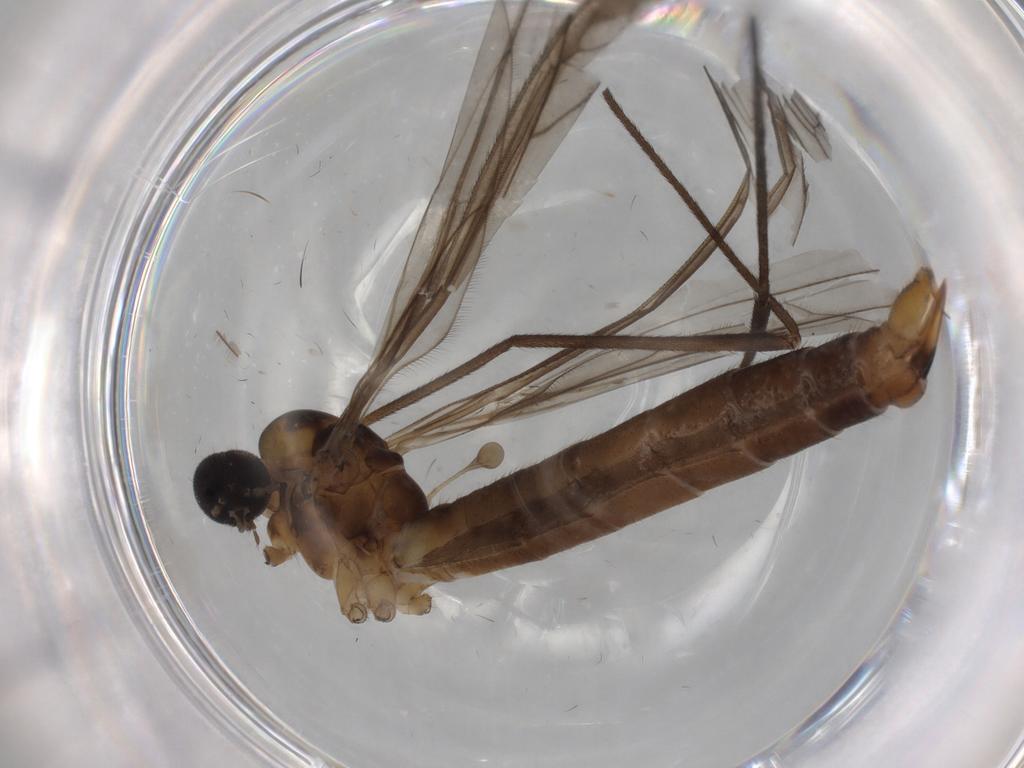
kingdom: Animalia
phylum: Arthropoda
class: Insecta
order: Diptera
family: Limoniidae
